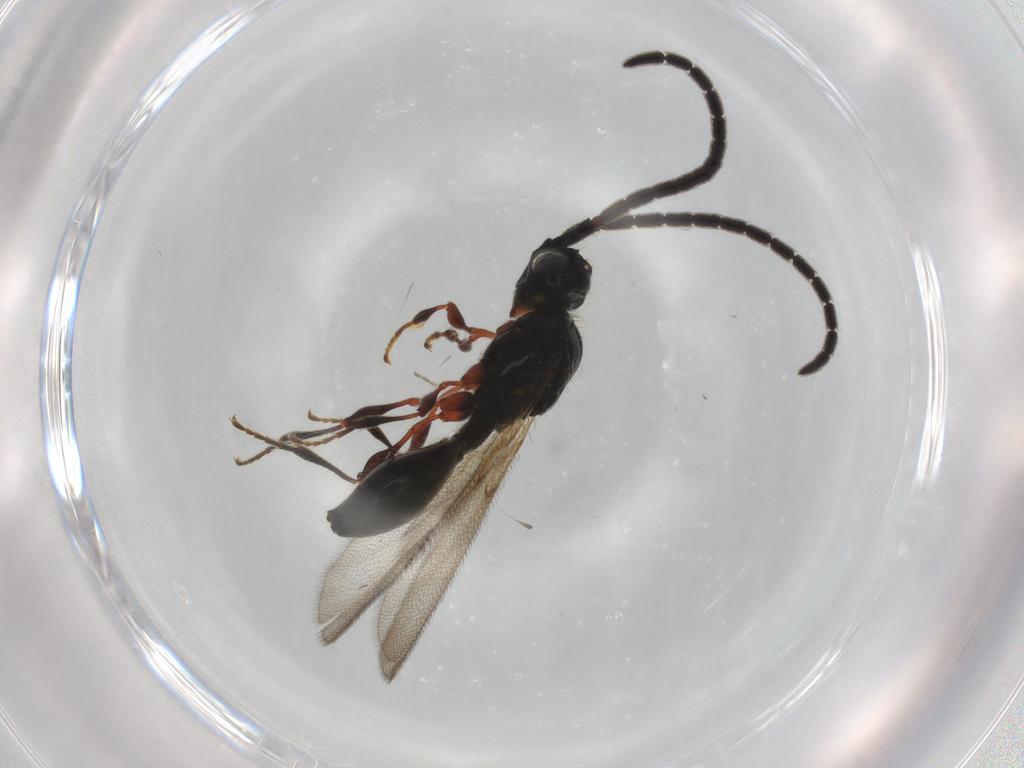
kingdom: Animalia
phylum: Arthropoda
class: Insecta
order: Hymenoptera
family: Diapriidae
